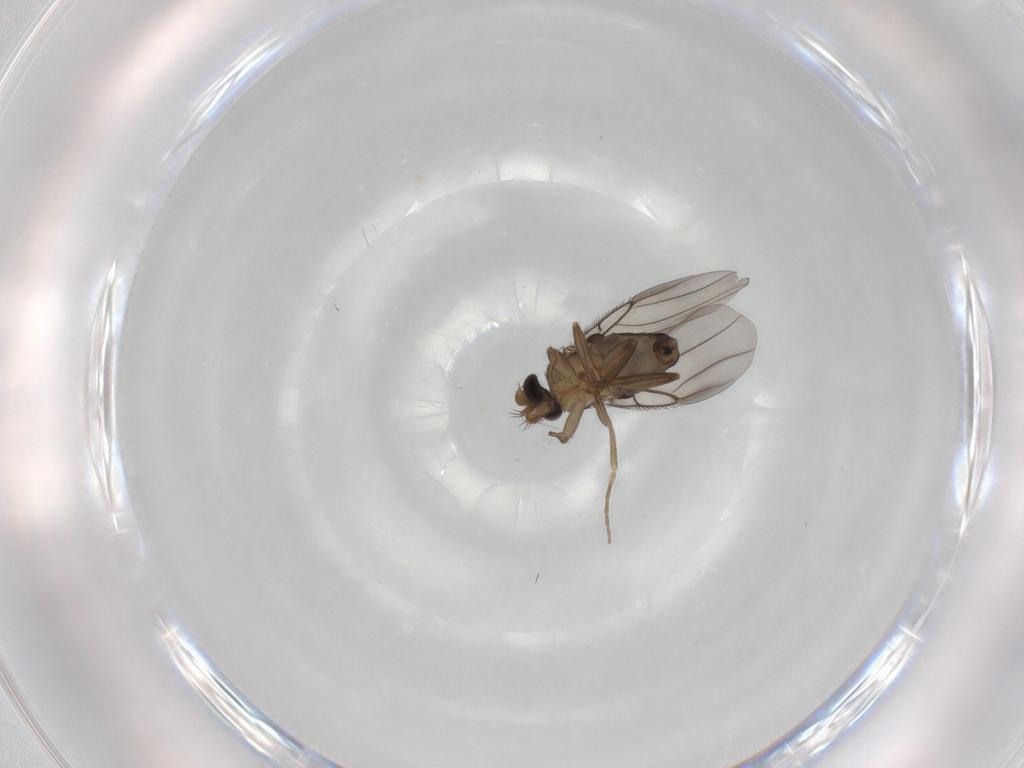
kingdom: Animalia
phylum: Arthropoda
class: Insecta
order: Diptera
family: Phoridae
